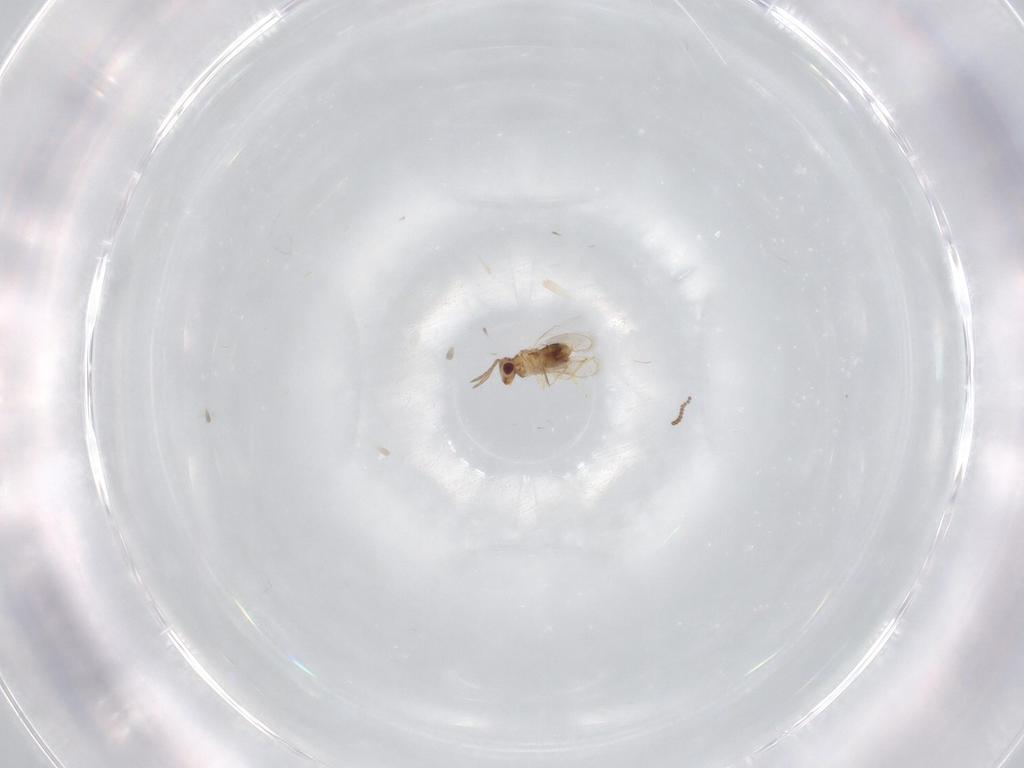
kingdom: Animalia
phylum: Arthropoda
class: Insecta
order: Hymenoptera
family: Aphelinidae
